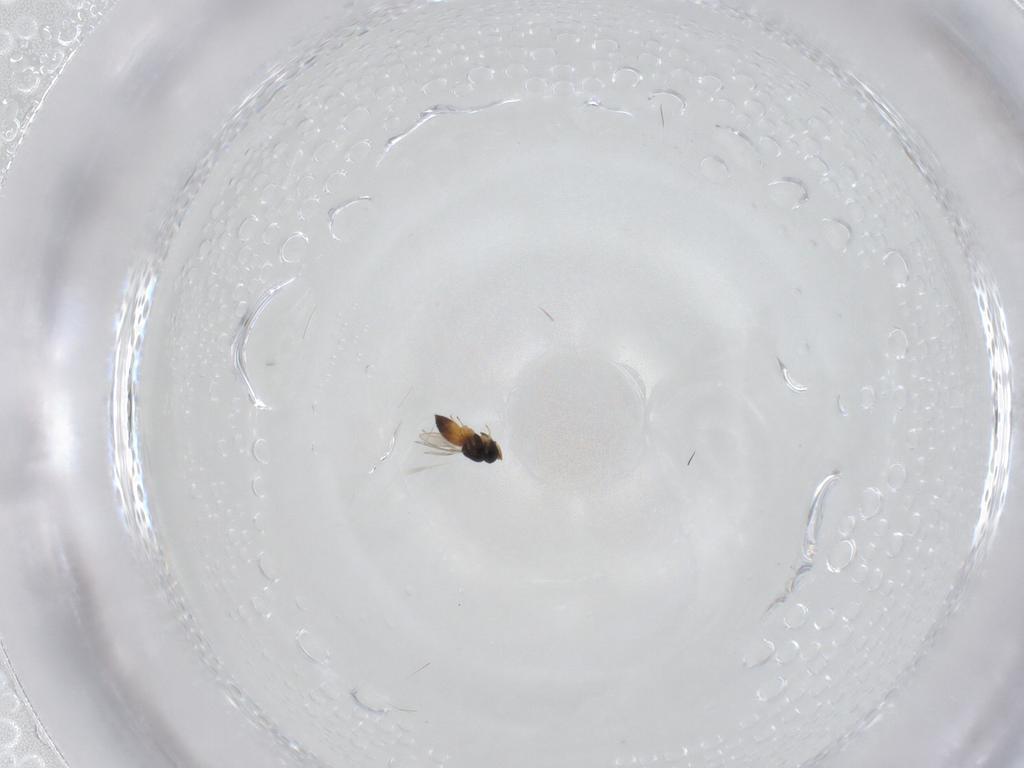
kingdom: Animalia
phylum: Arthropoda
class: Insecta
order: Hymenoptera
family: Scelionidae
